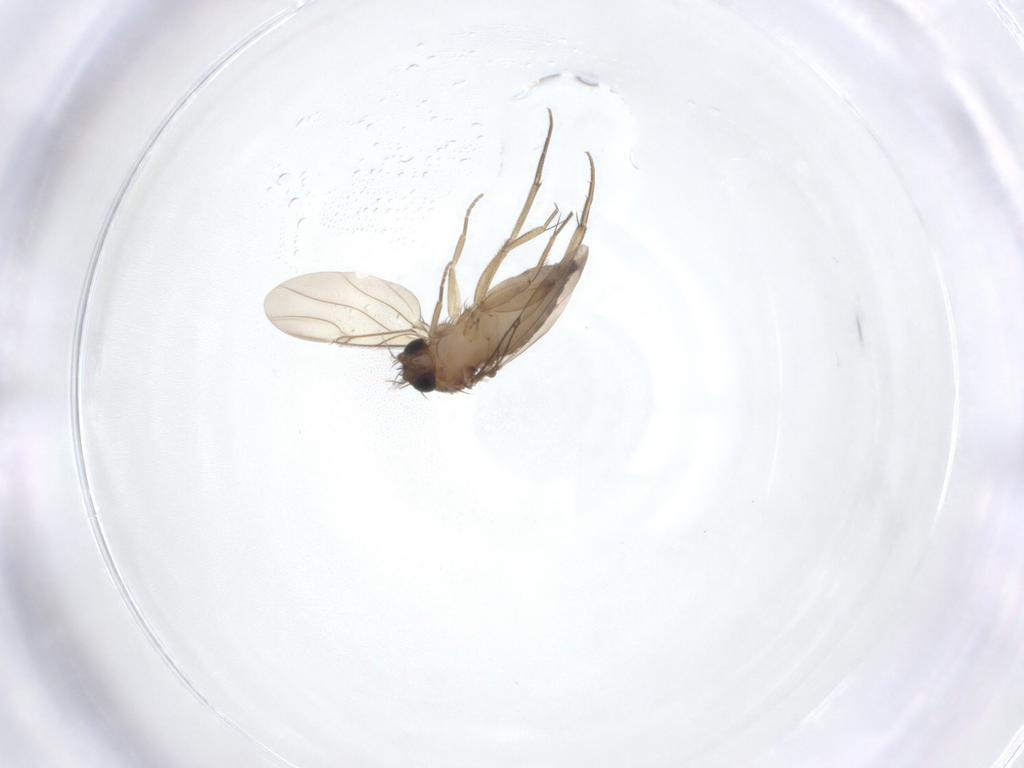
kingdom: Animalia
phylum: Arthropoda
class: Insecta
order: Diptera
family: Phoridae
